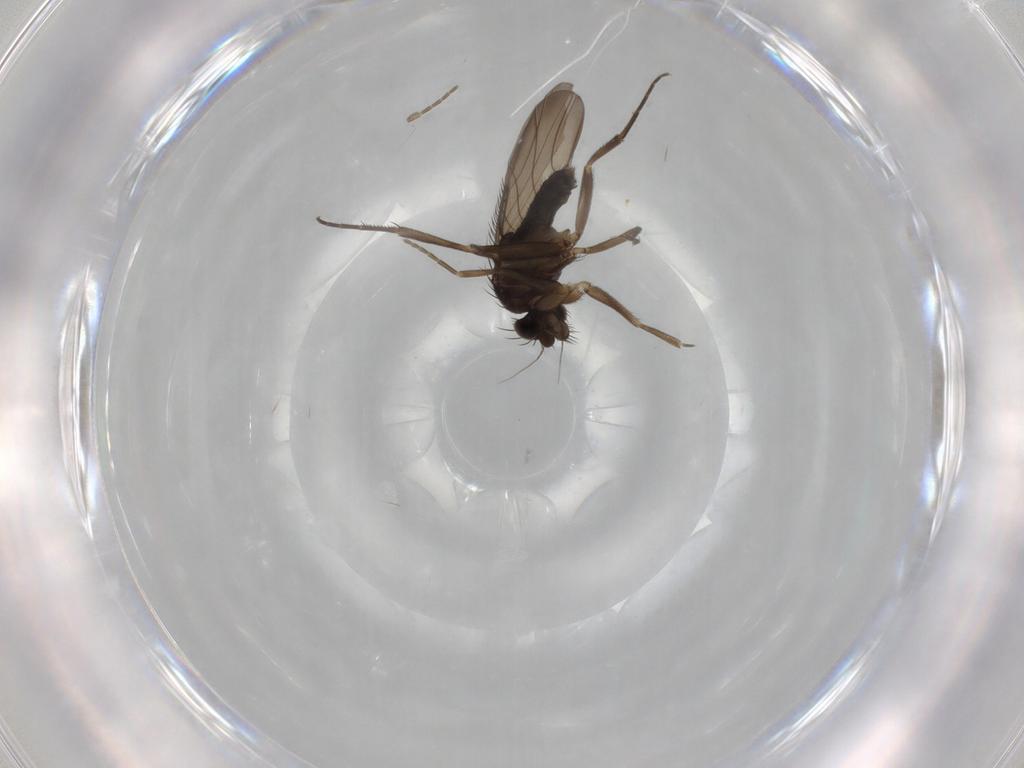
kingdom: Animalia
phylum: Arthropoda
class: Insecta
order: Diptera
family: Phoridae
